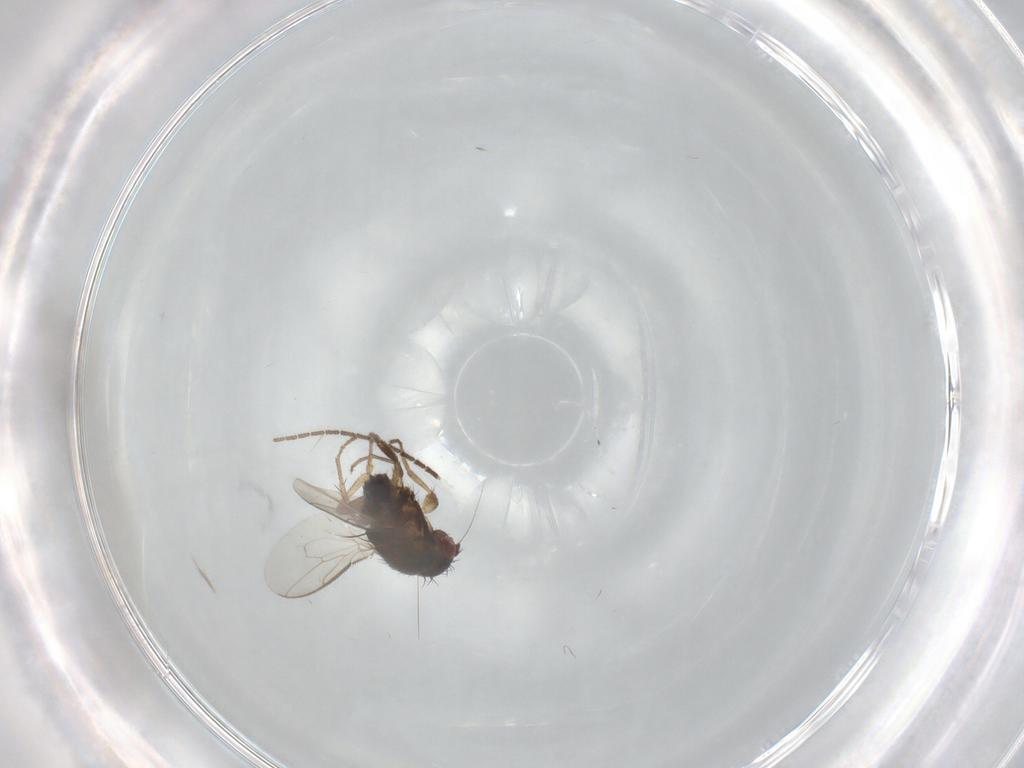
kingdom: Animalia
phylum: Arthropoda
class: Insecta
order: Diptera
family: Sphaeroceridae
